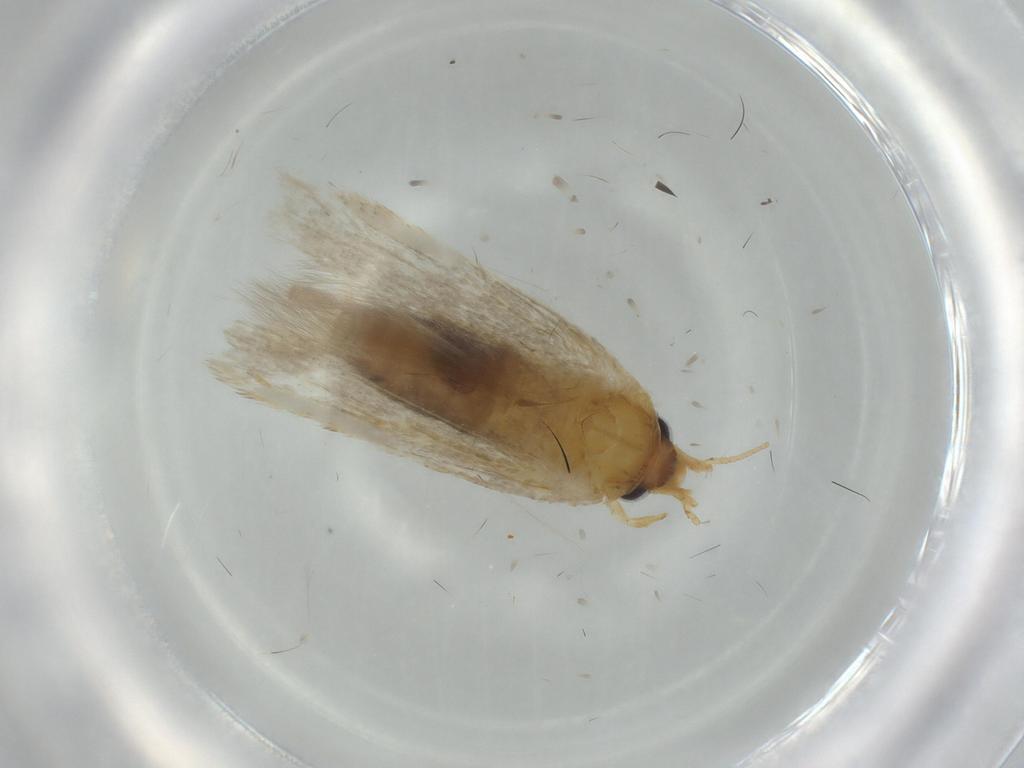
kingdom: Animalia
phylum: Arthropoda
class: Insecta
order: Lepidoptera
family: Blastobasidae
